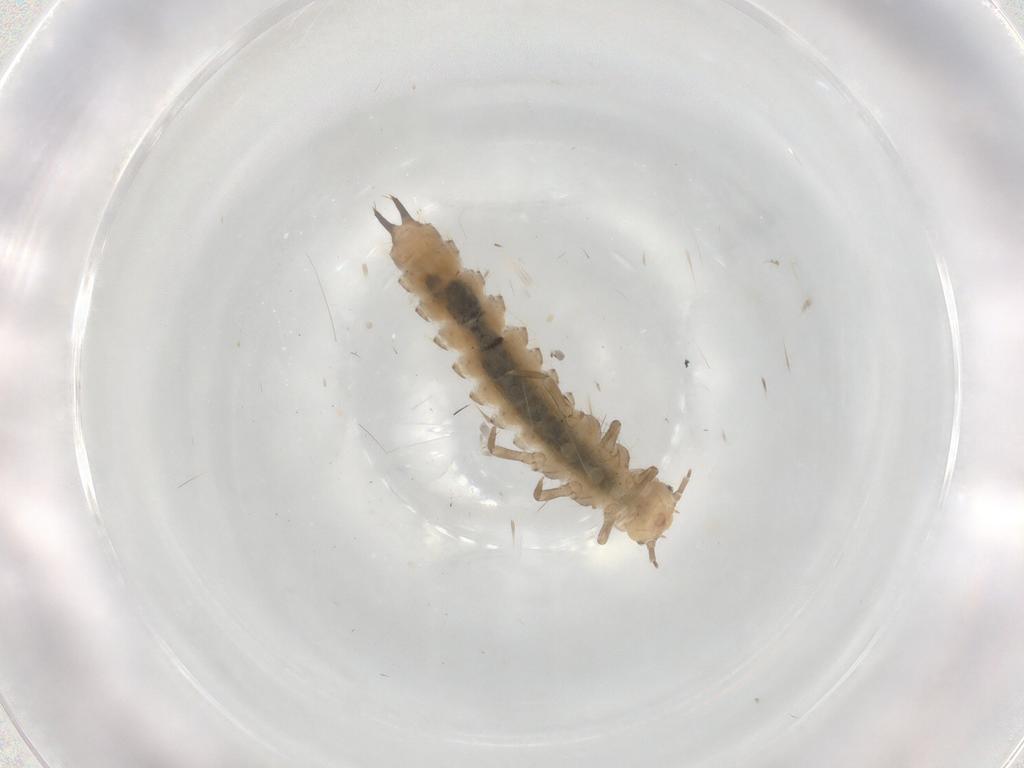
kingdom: Animalia
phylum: Arthropoda
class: Insecta
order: Coleoptera
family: Phalacridae
